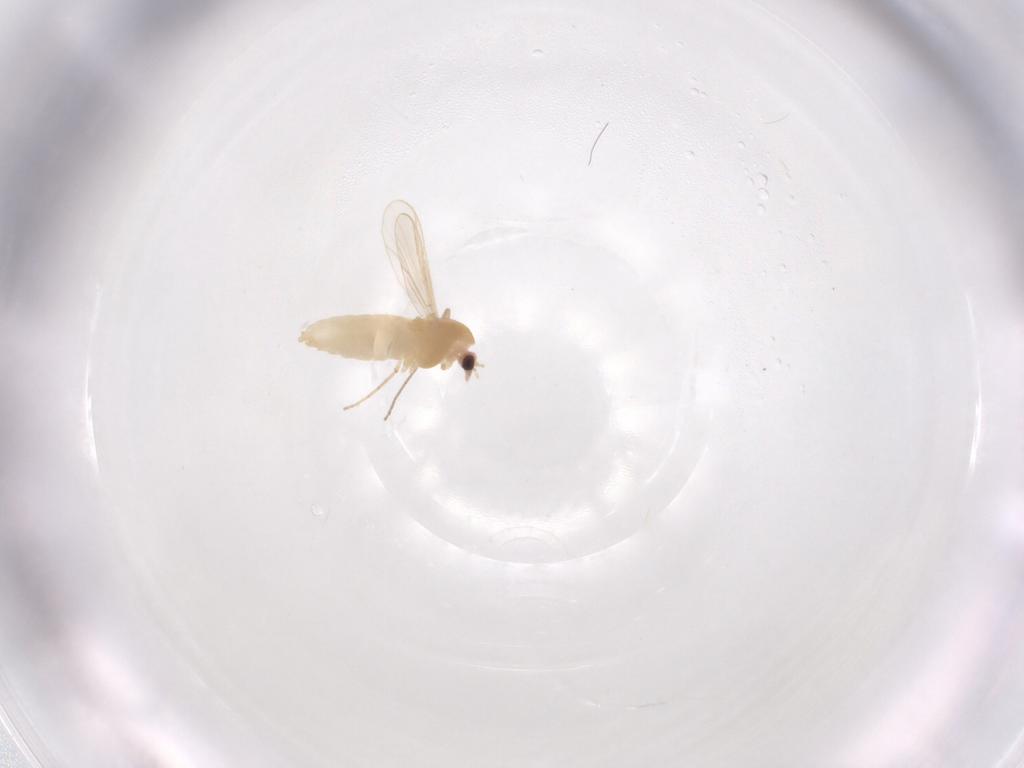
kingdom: Animalia
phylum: Arthropoda
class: Insecta
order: Diptera
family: Chironomidae
